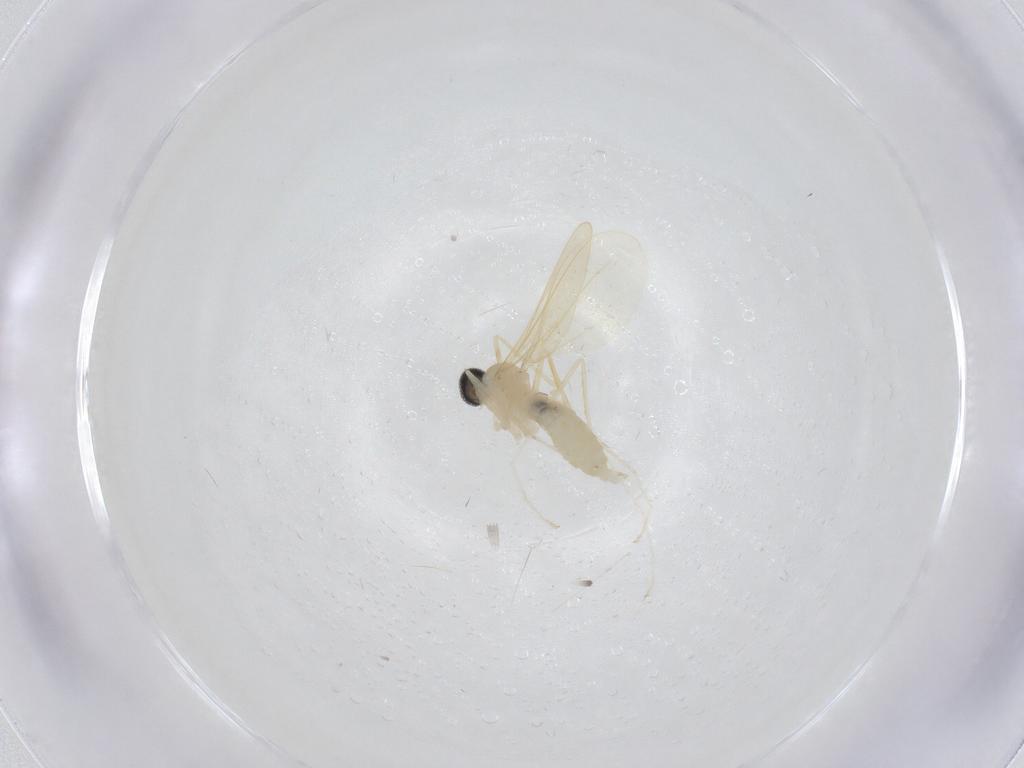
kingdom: Animalia
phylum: Arthropoda
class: Insecta
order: Diptera
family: Cecidomyiidae
